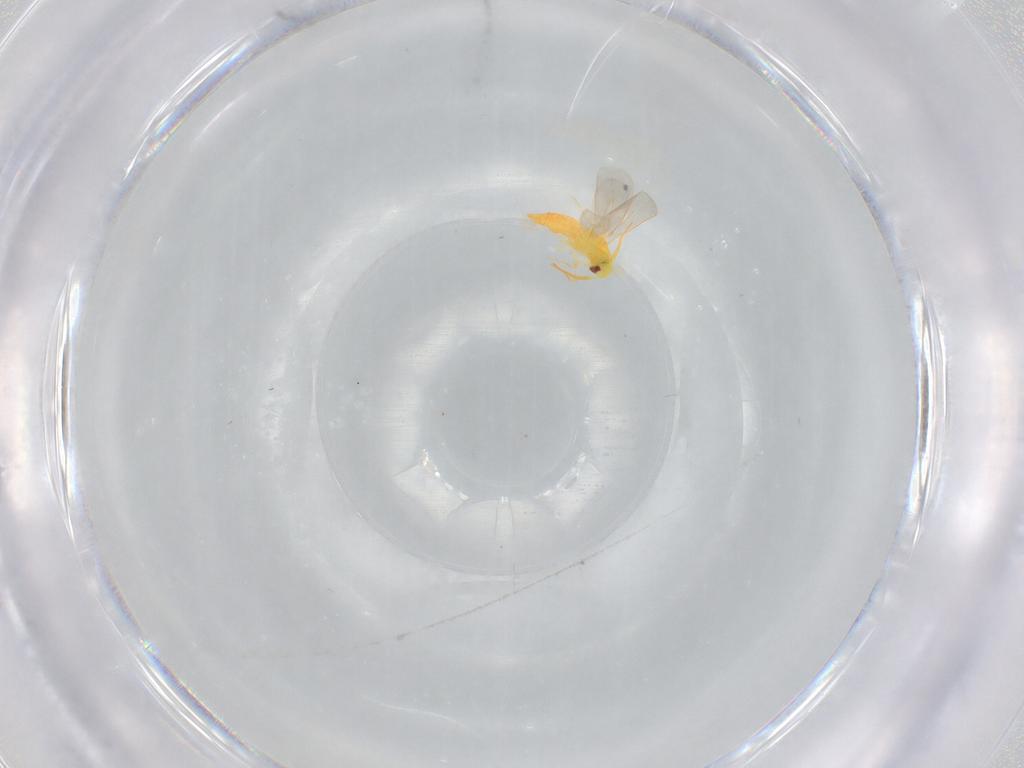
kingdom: Animalia
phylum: Arthropoda
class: Insecta
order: Hemiptera
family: Aleyrodidae
